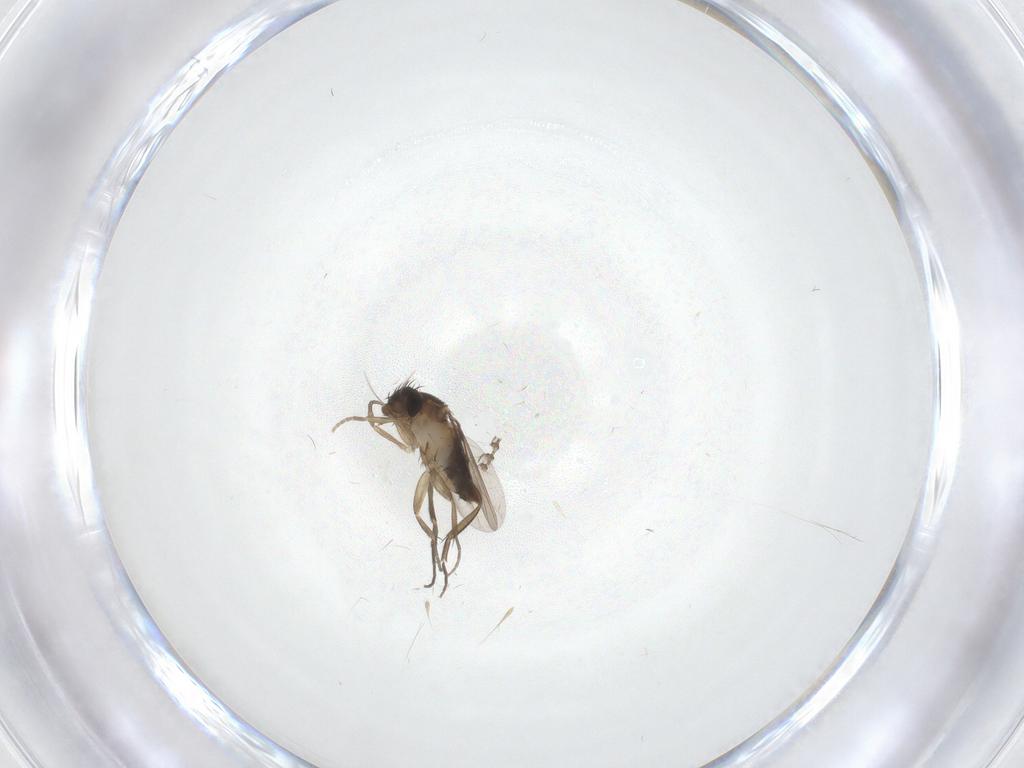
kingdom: Animalia
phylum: Arthropoda
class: Insecta
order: Diptera
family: Phoridae
